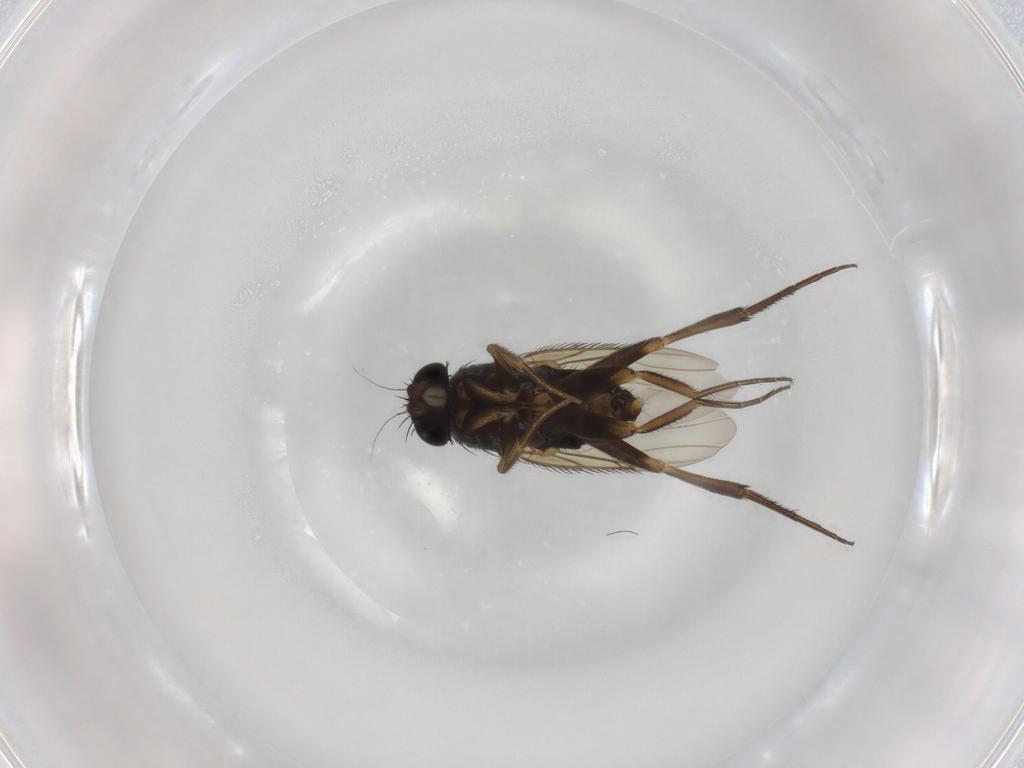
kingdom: Animalia
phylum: Arthropoda
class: Insecta
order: Diptera
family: Phoridae
